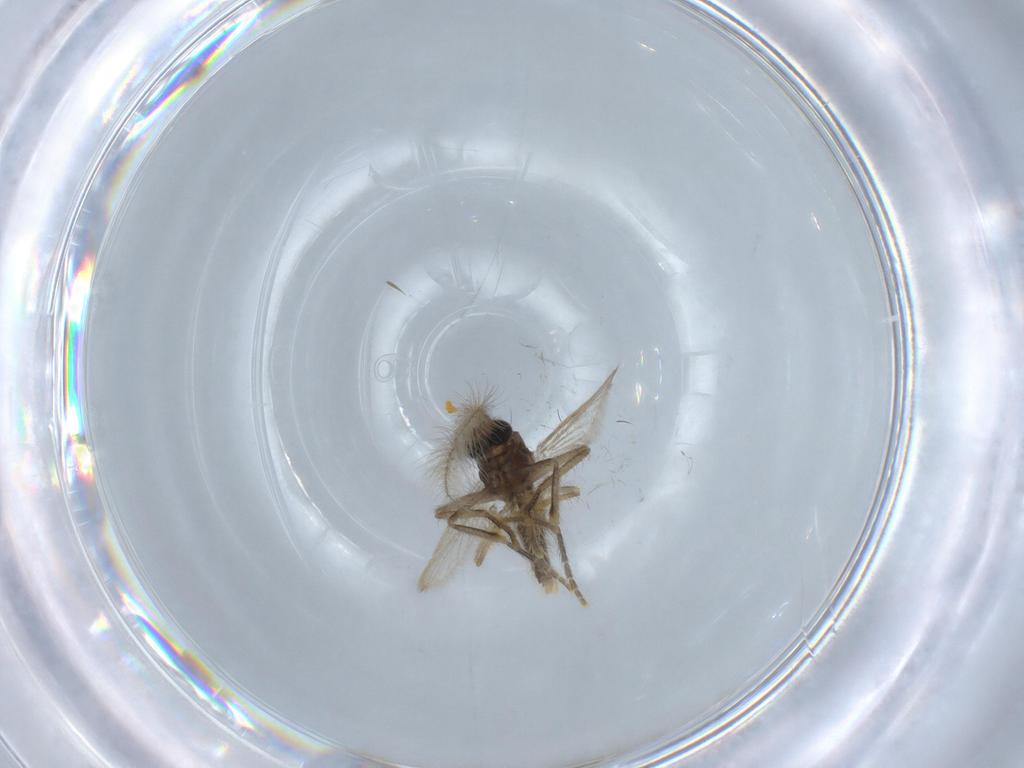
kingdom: Animalia
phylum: Arthropoda
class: Insecta
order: Diptera
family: Corethrellidae
